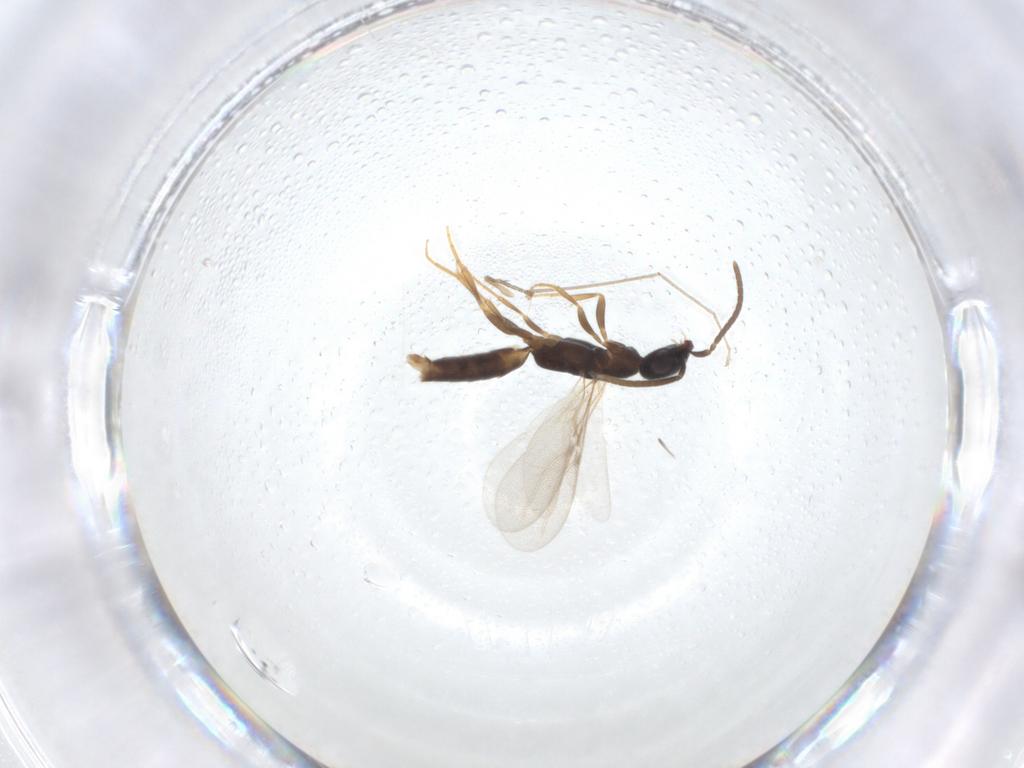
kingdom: Animalia
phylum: Arthropoda
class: Insecta
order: Hymenoptera
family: Bethylidae
